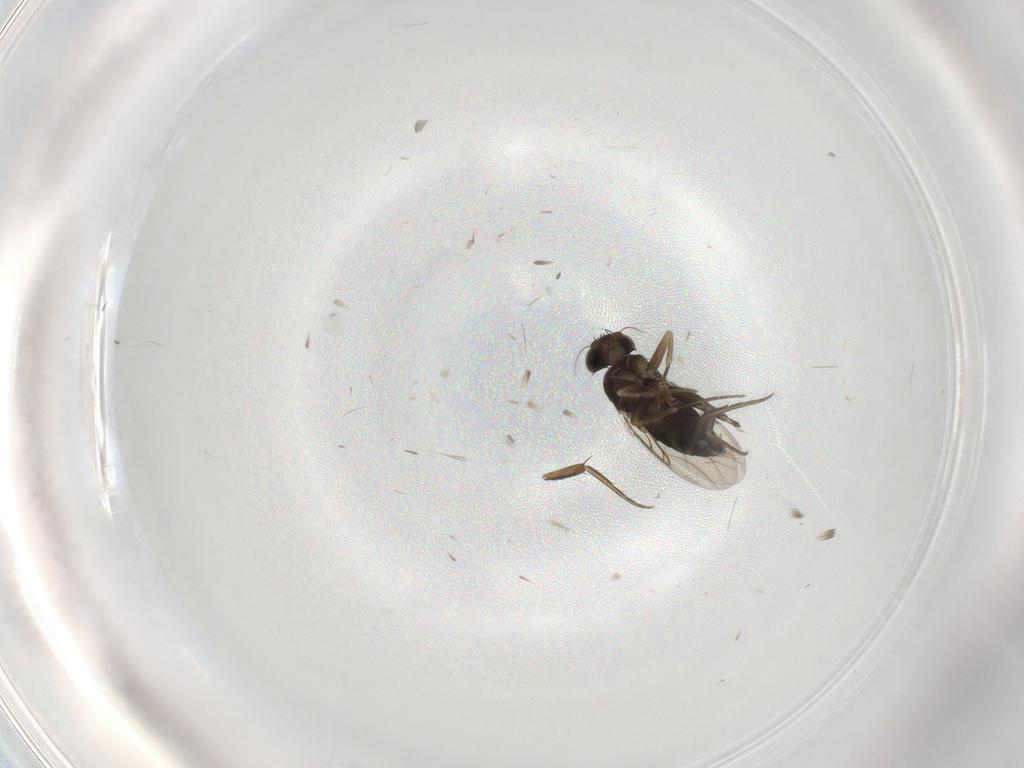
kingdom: Animalia
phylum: Arthropoda
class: Insecta
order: Diptera
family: Phoridae
